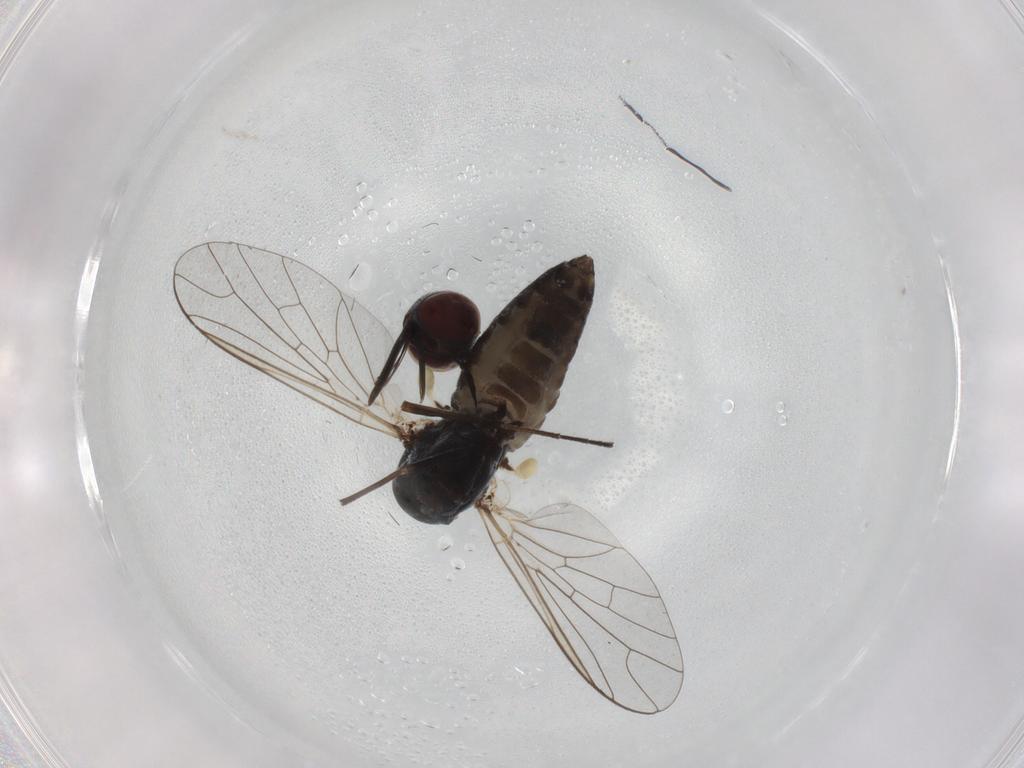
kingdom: Animalia
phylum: Arthropoda
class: Insecta
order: Diptera
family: Bombyliidae
